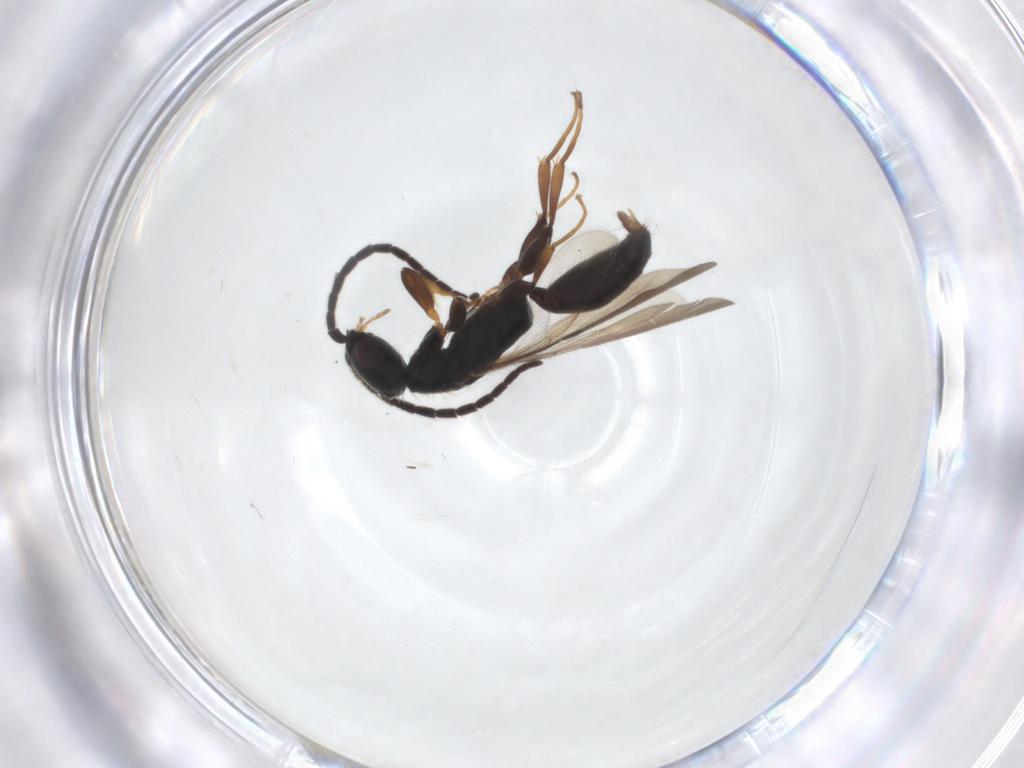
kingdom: Animalia
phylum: Arthropoda
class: Insecta
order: Hymenoptera
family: Bethylidae
